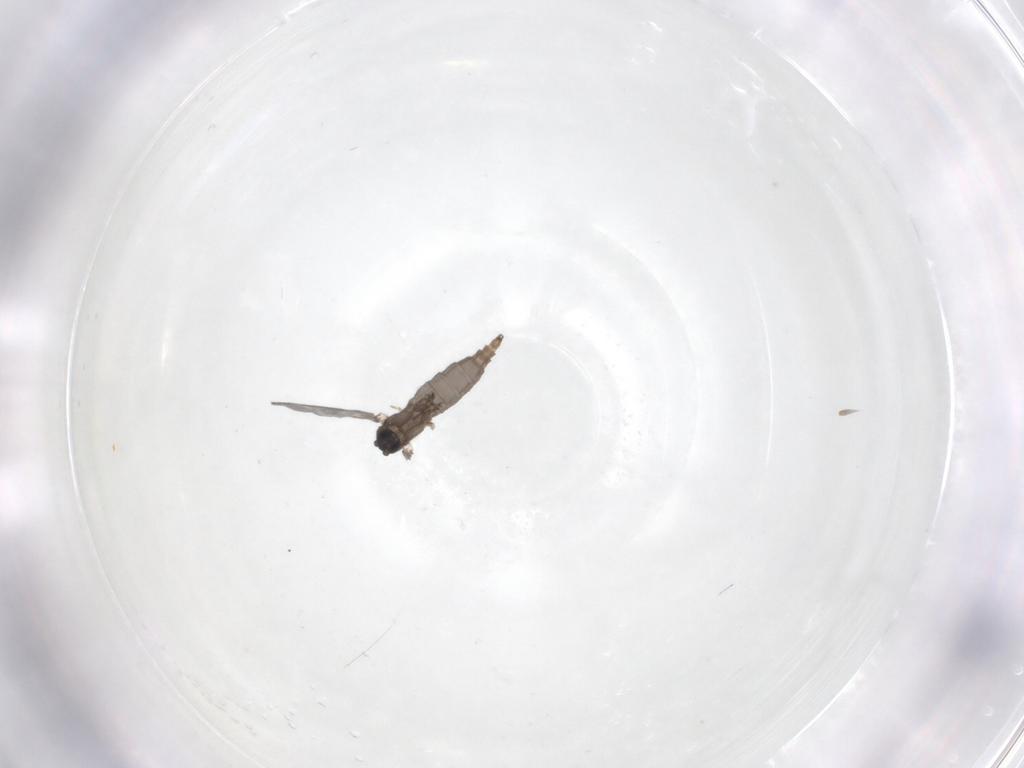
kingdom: Animalia
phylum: Arthropoda
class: Insecta
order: Diptera
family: Sciaridae
